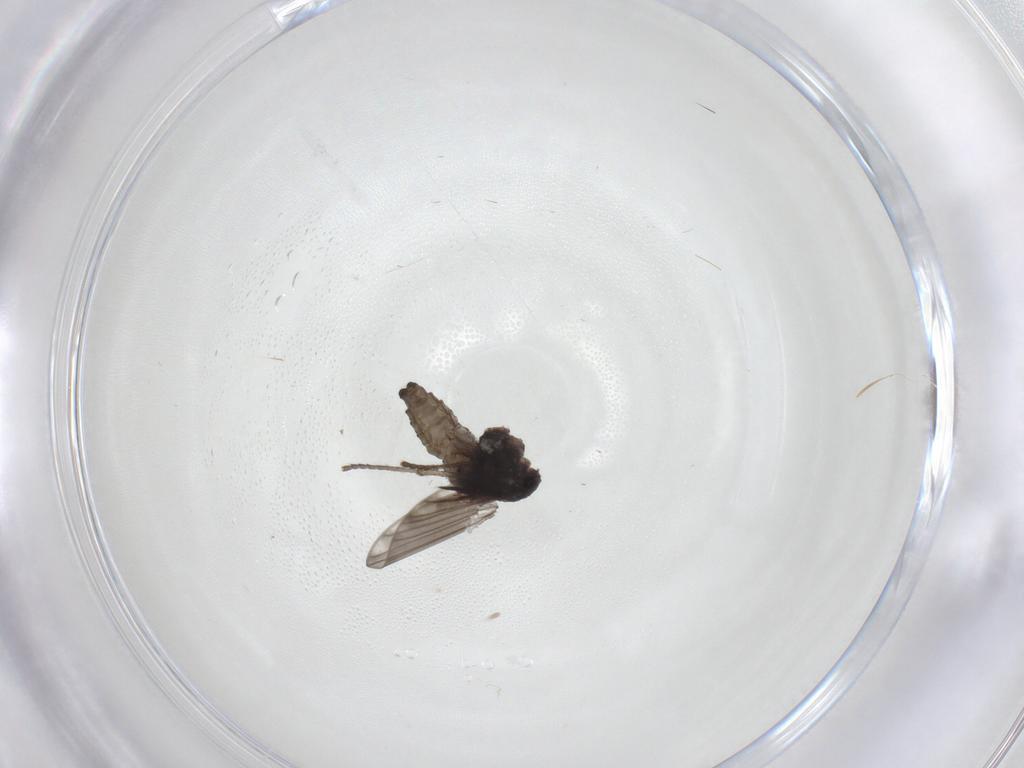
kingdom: Animalia
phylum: Arthropoda
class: Insecta
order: Diptera
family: Psychodidae
